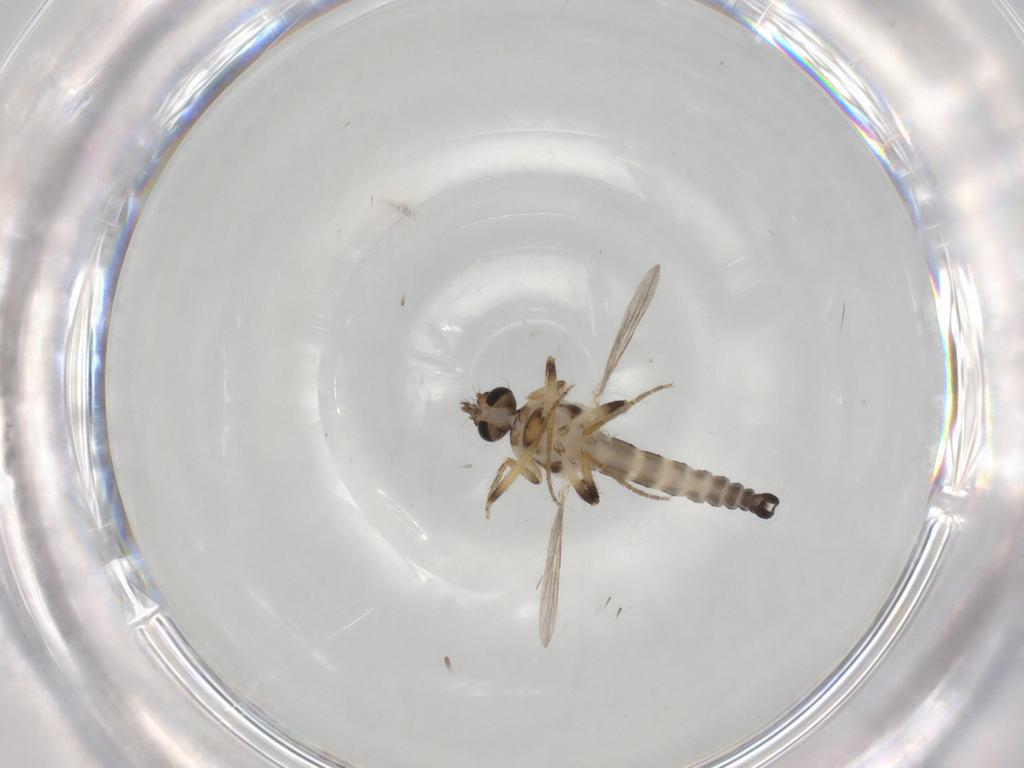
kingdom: Animalia
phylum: Arthropoda
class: Insecta
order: Diptera
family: Ceratopogonidae
